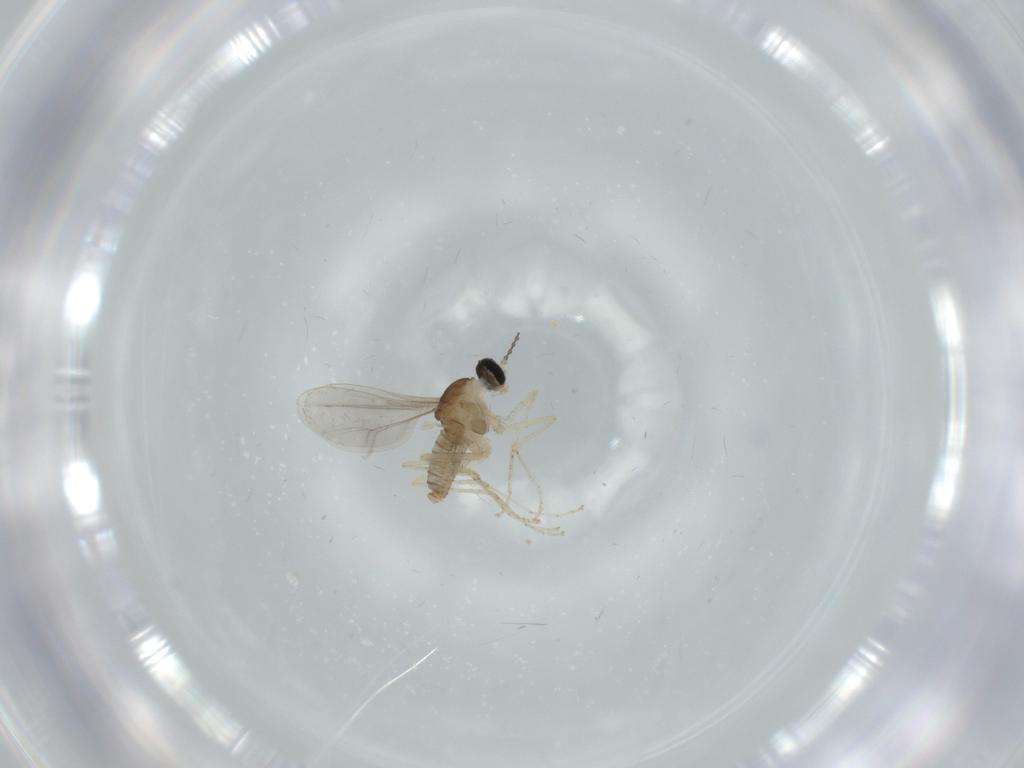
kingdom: Animalia
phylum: Arthropoda
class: Insecta
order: Diptera
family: Cecidomyiidae
